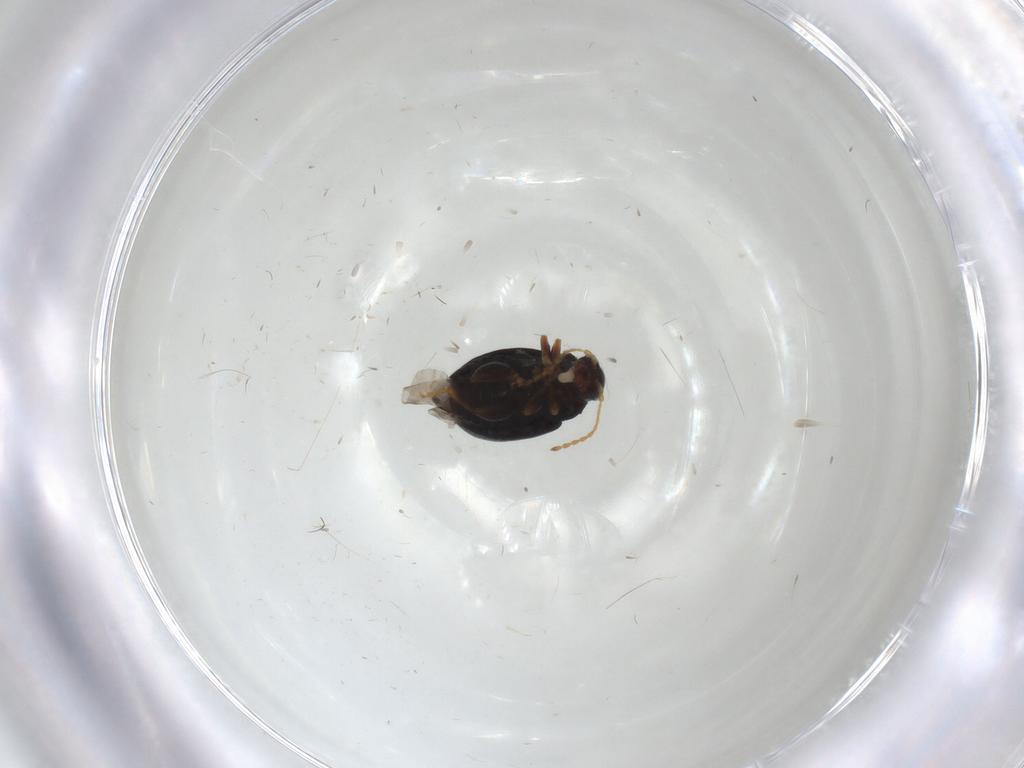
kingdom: Animalia
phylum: Arthropoda
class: Insecta
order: Coleoptera
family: Chrysomelidae
